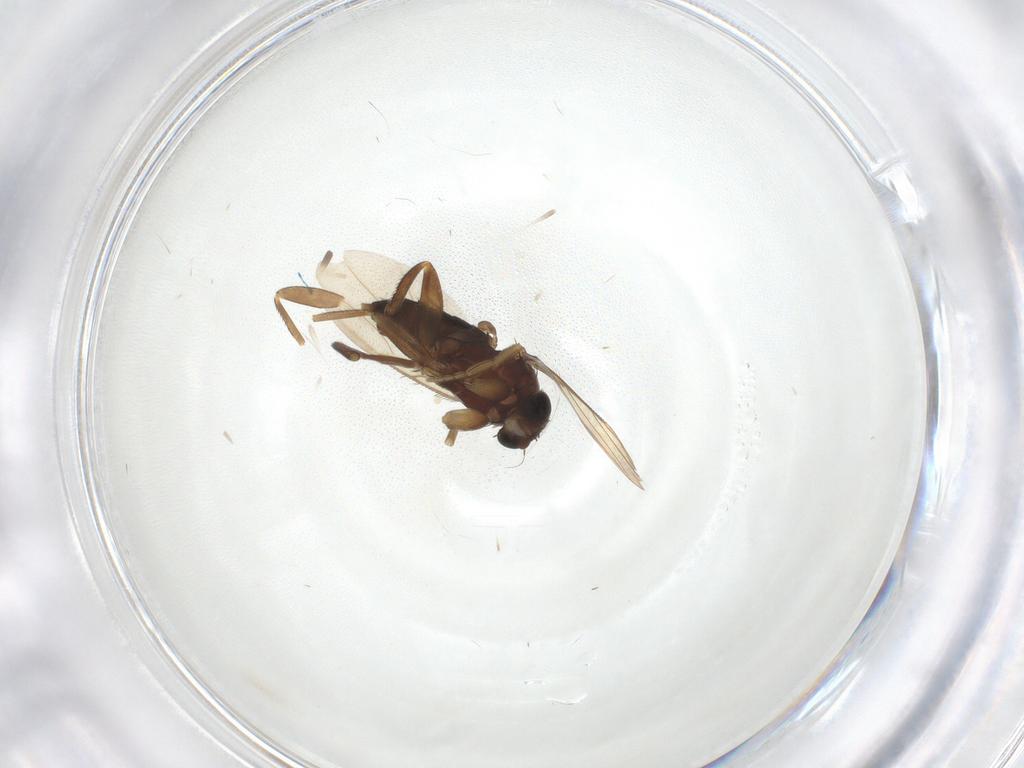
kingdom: Animalia
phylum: Arthropoda
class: Insecta
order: Diptera
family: Phoridae
